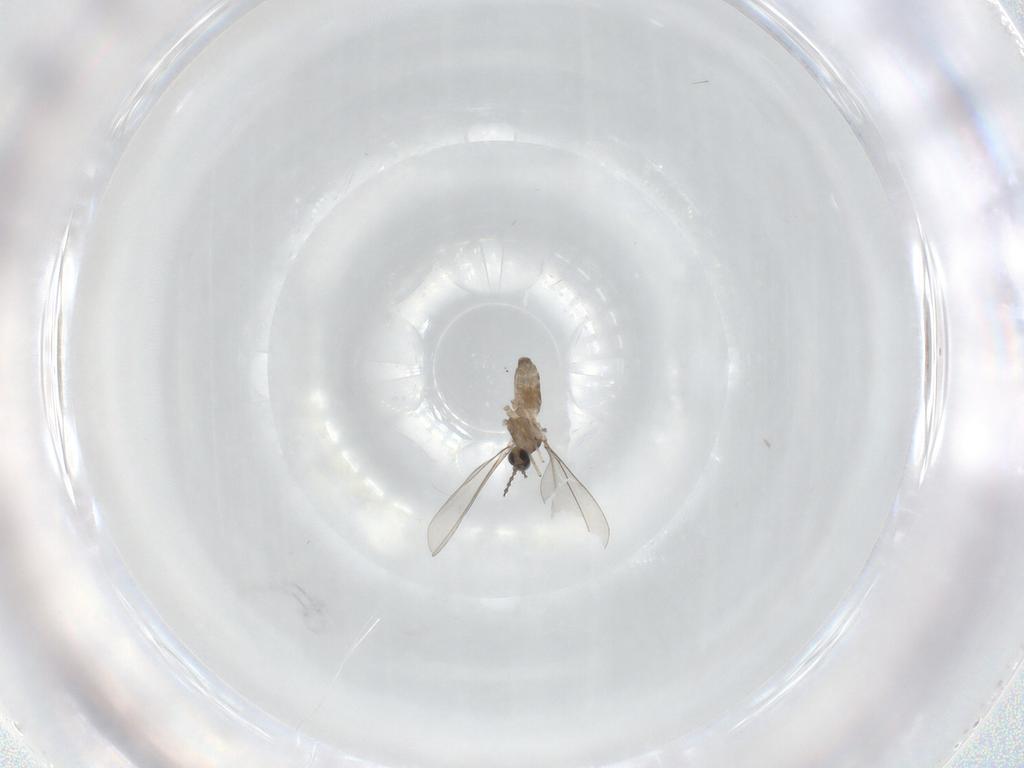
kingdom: Animalia
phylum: Arthropoda
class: Insecta
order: Diptera
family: Cecidomyiidae
